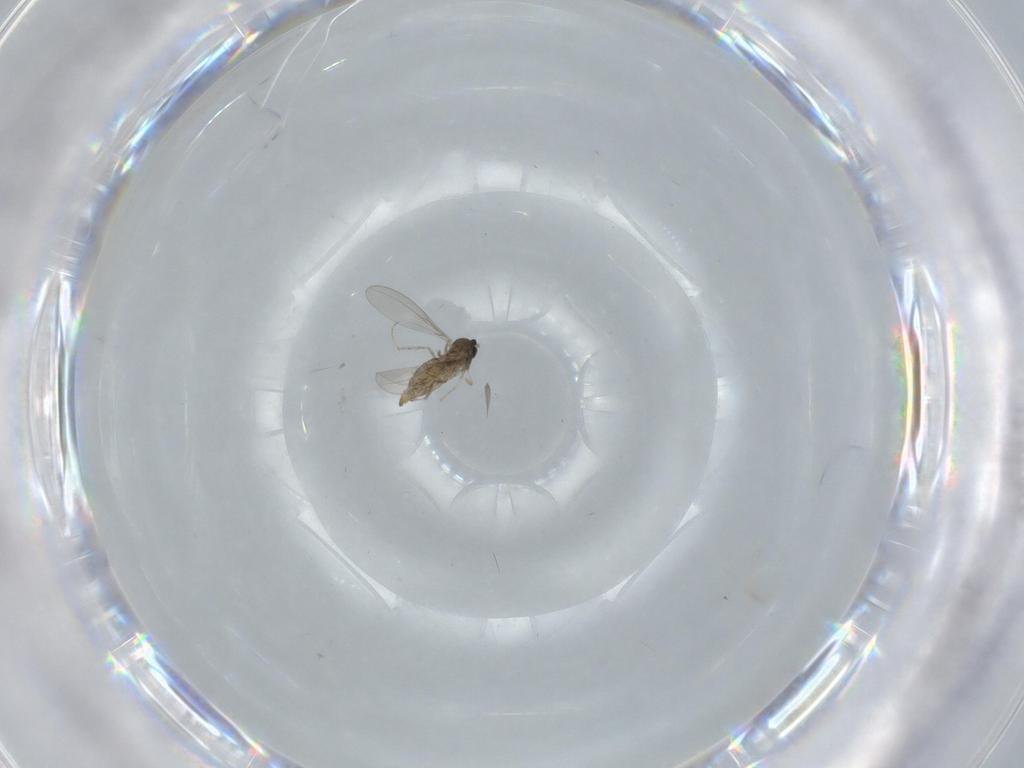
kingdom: Animalia
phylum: Arthropoda
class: Insecta
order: Diptera
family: Cecidomyiidae
